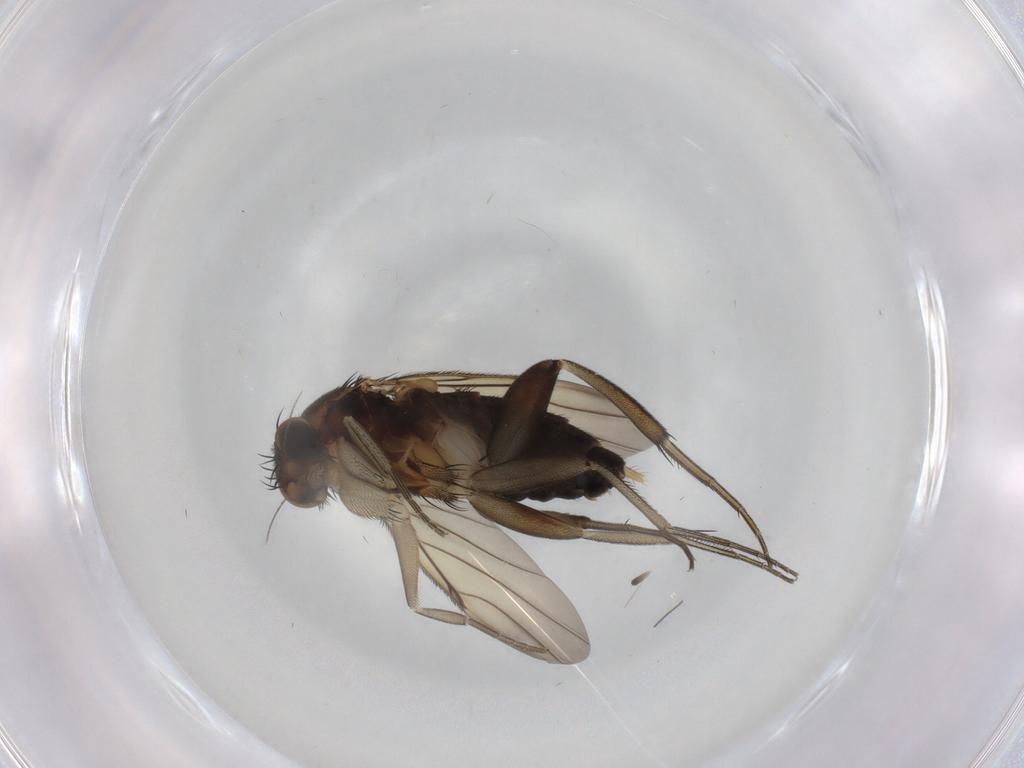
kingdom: Animalia
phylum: Arthropoda
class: Insecta
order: Diptera
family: Phoridae
